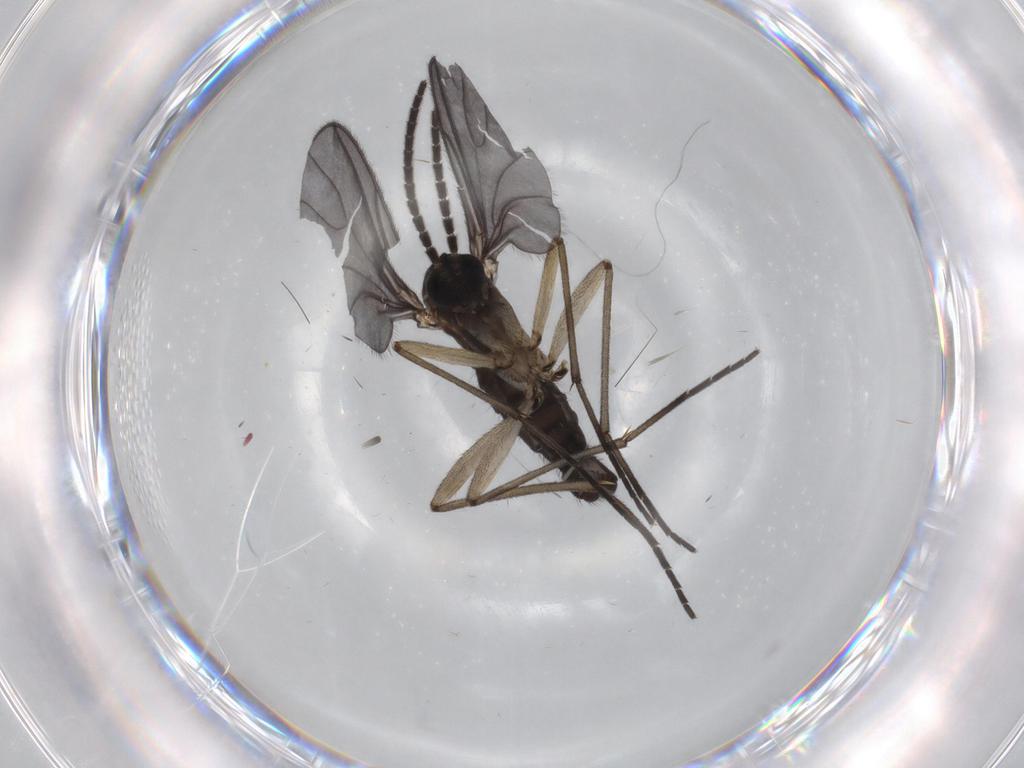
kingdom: Animalia
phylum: Arthropoda
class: Insecta
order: Diptera
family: Sciaridae
